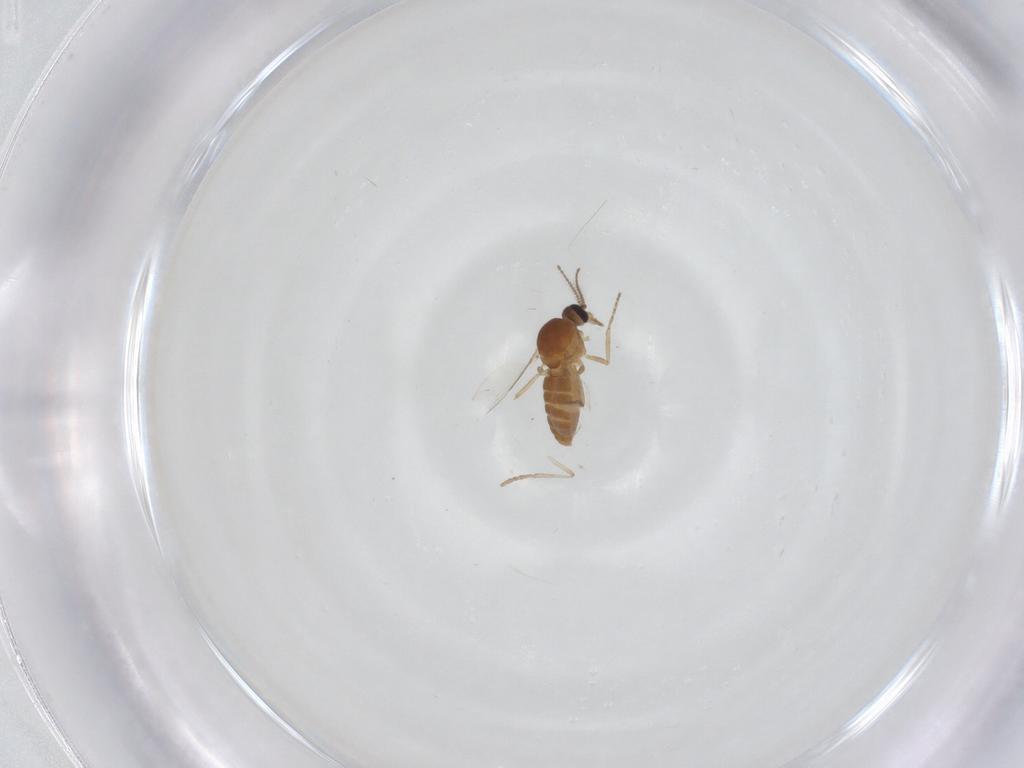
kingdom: Animalia
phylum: Arthropoda
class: Insecta
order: Diptera
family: Ceratopogonidae
